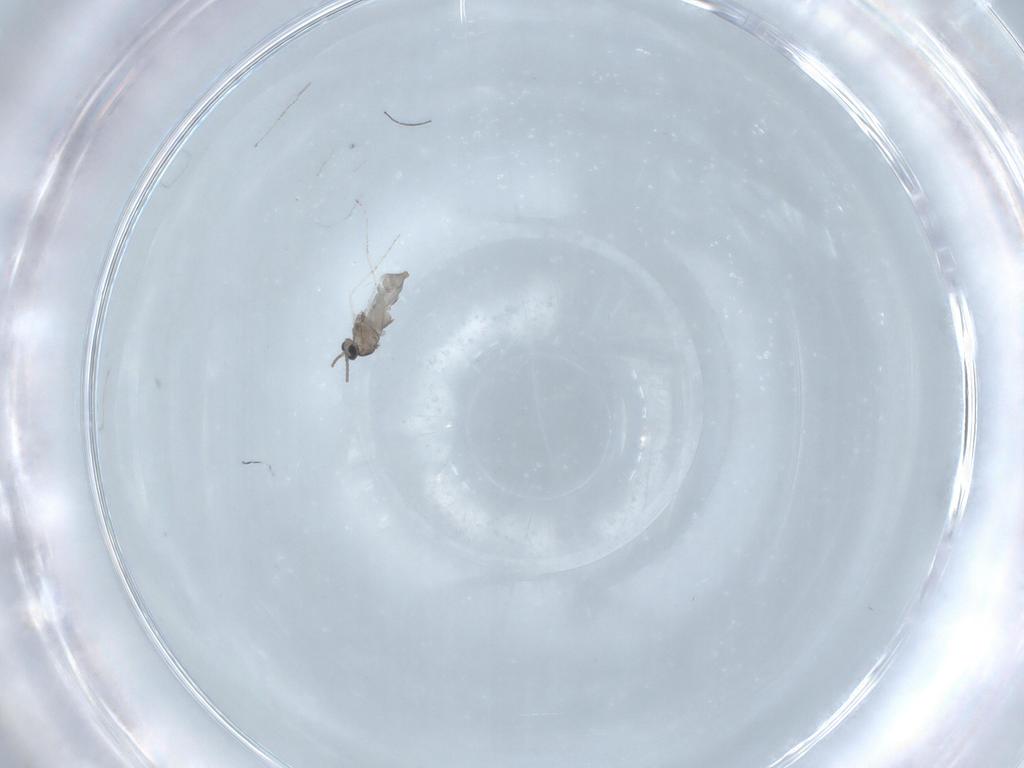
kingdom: Animalia
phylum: Arthropoda
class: Insecta
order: Diptera
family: Cecidomyiidae
